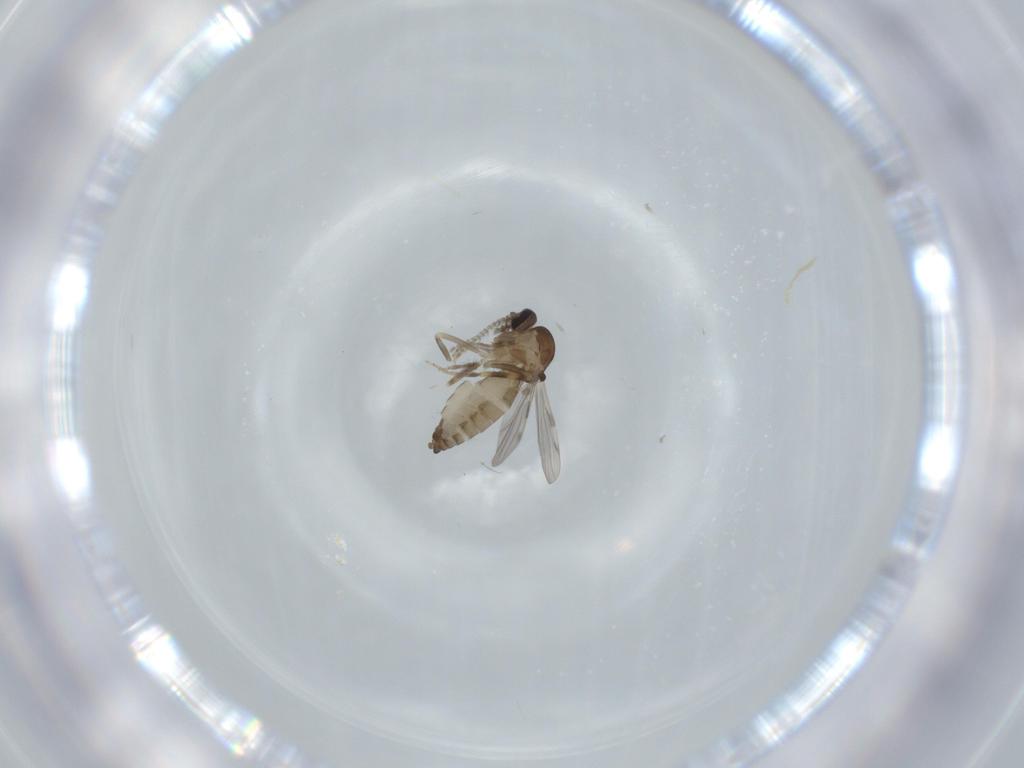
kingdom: Animalia
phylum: Arthropoda
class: Insecta
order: Diptera
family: Ceratopogonidae
